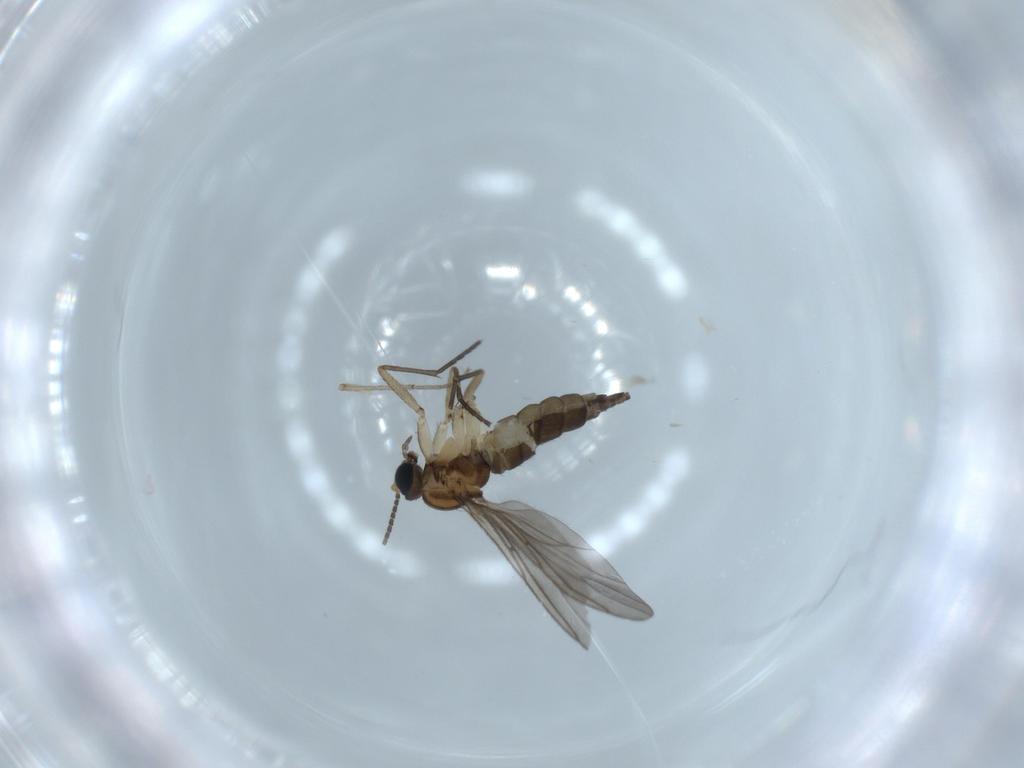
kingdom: Animalia
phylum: Arthropoda
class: Insecta
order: Diptera
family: Sciaridae
